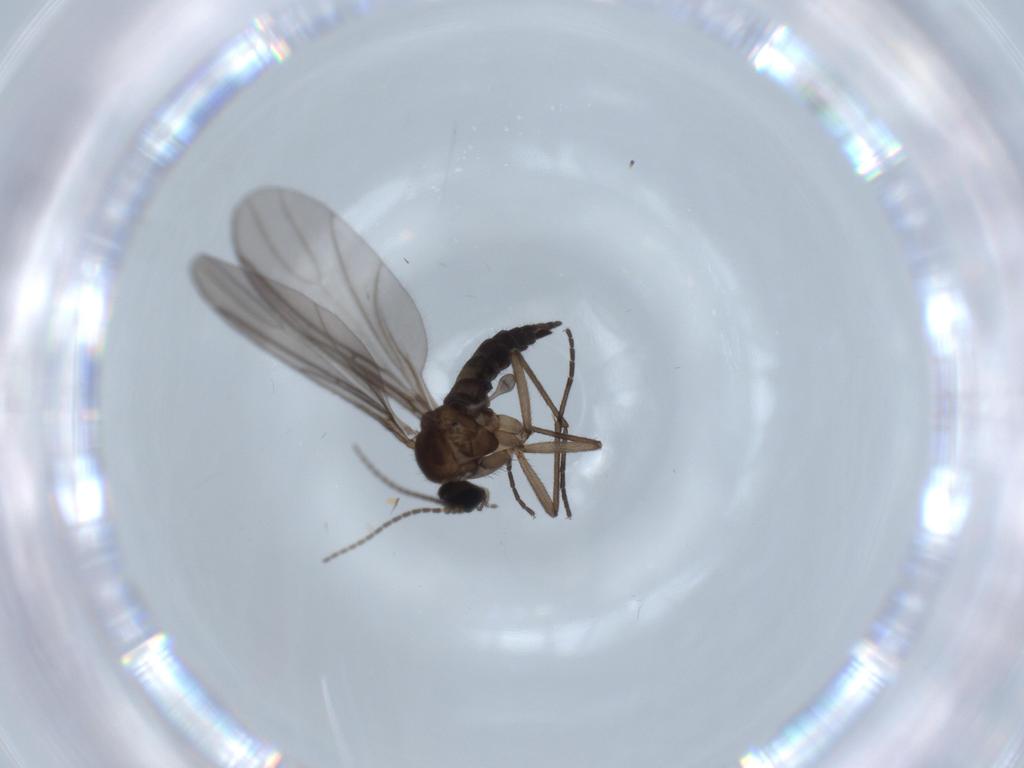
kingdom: Animalia
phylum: Arthropoda
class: Insecta
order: Diptera
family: Sciaridae
